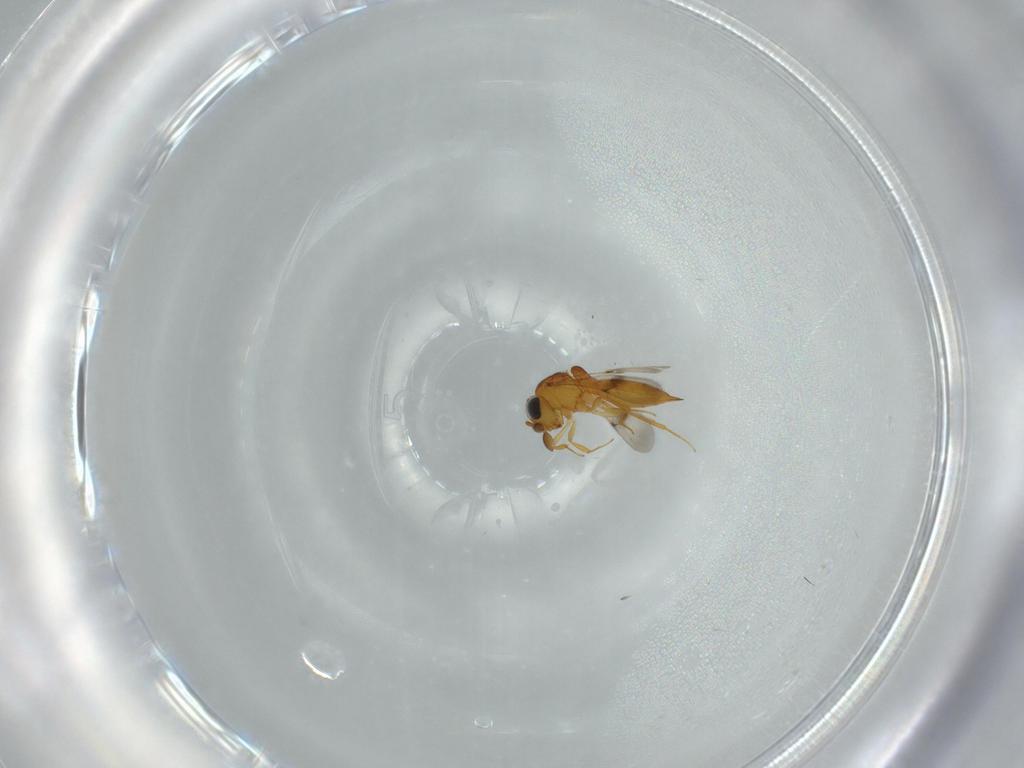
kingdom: Animalia
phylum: Arthropoda
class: Insecta
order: Hymenoptera
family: Scelionidae
